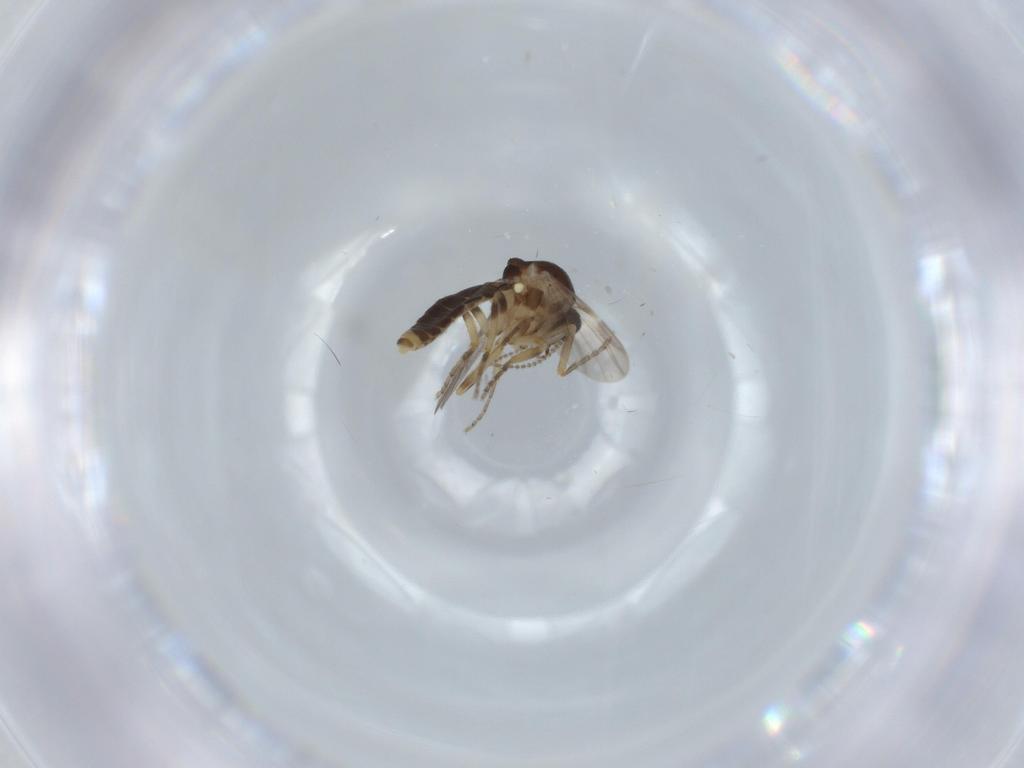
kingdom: Animalia
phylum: Arthropoda
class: Insecta
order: Diptera
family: Ceratopogonidae
